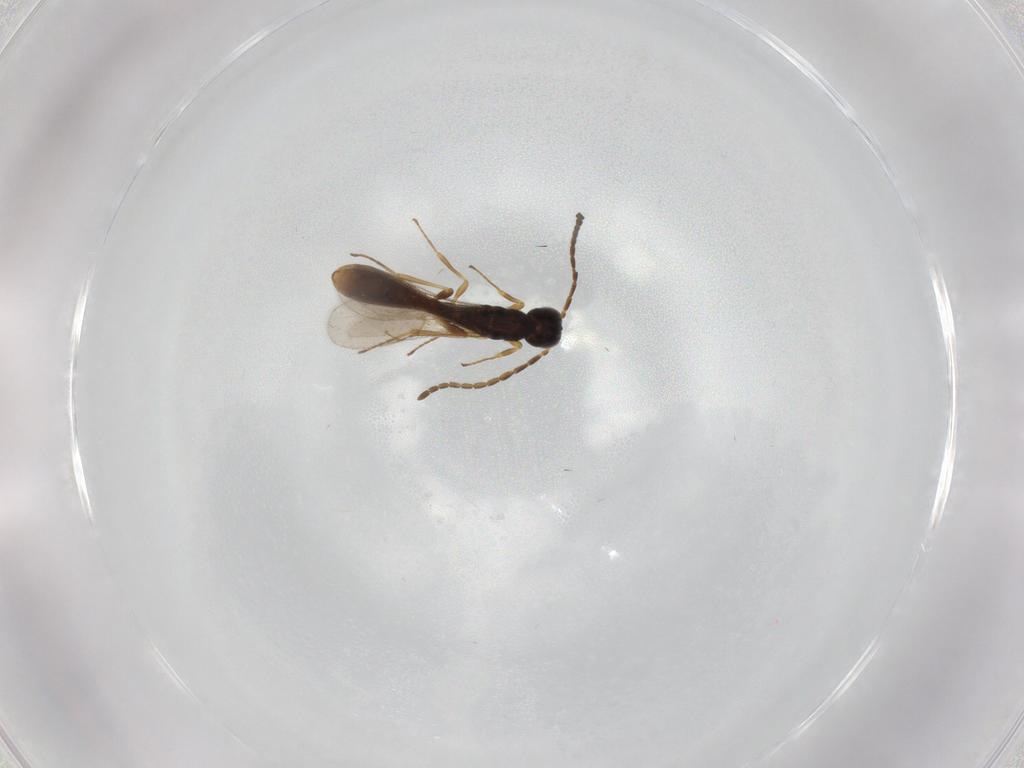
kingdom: Animalia
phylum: Arthropoda
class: Insecta
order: Hymenoptera
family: Scelionidae
